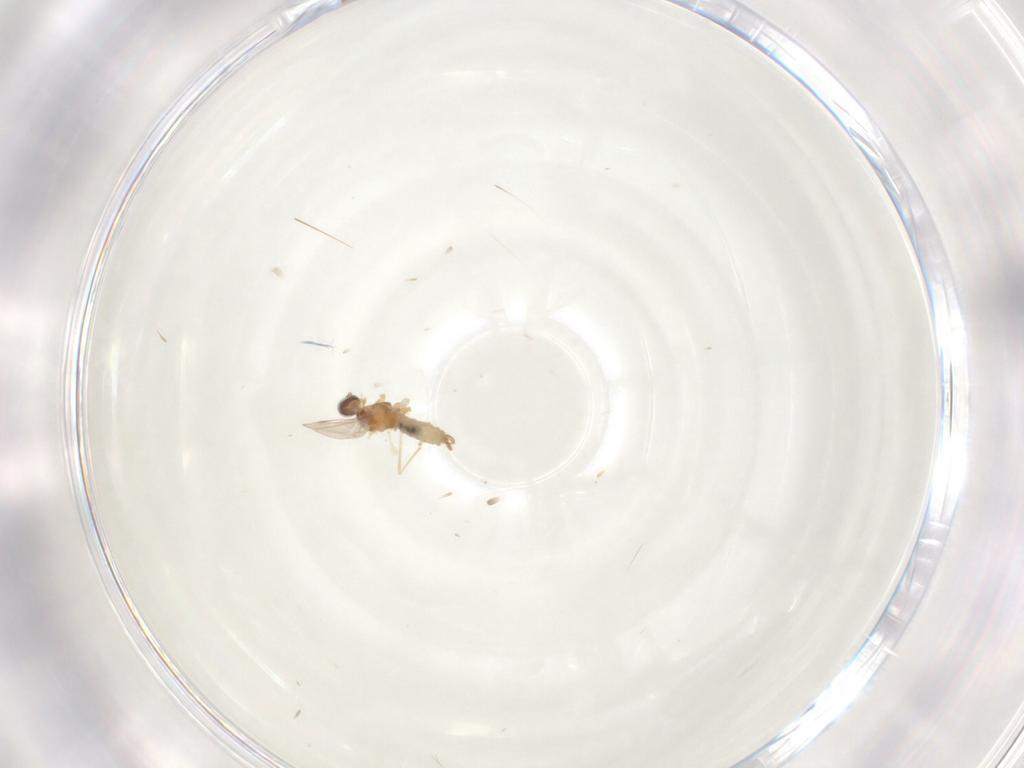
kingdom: Animalia
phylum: Arthropoda
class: Insecta
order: Diptera
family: Cecidomyiidae
